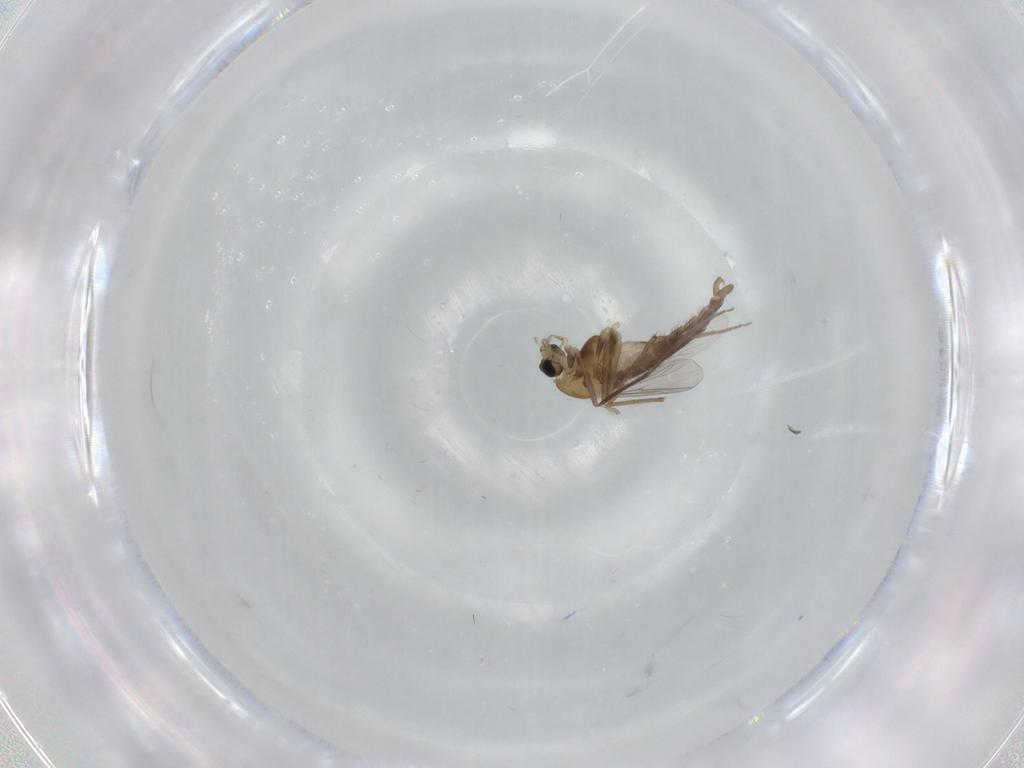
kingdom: Animalia
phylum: Arthropoda
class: Insecta
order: Diptera
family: Chironomidae
